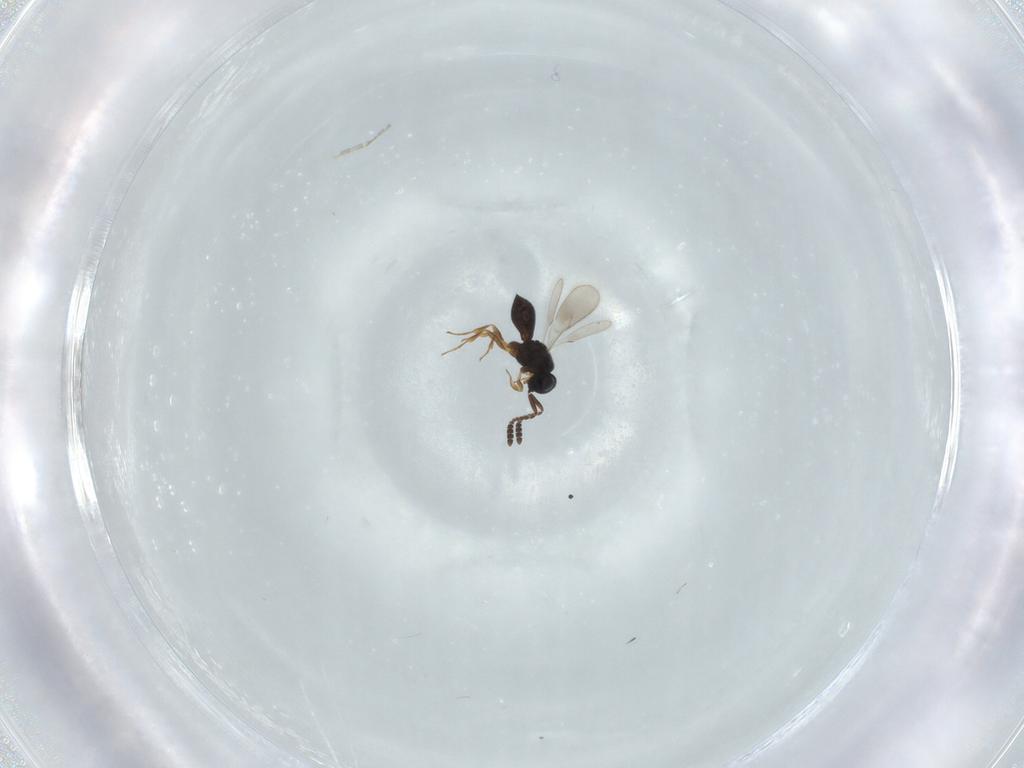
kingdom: Animalia
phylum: Arthropoda
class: Insecta
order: Hymenoptera
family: Scelionidae
